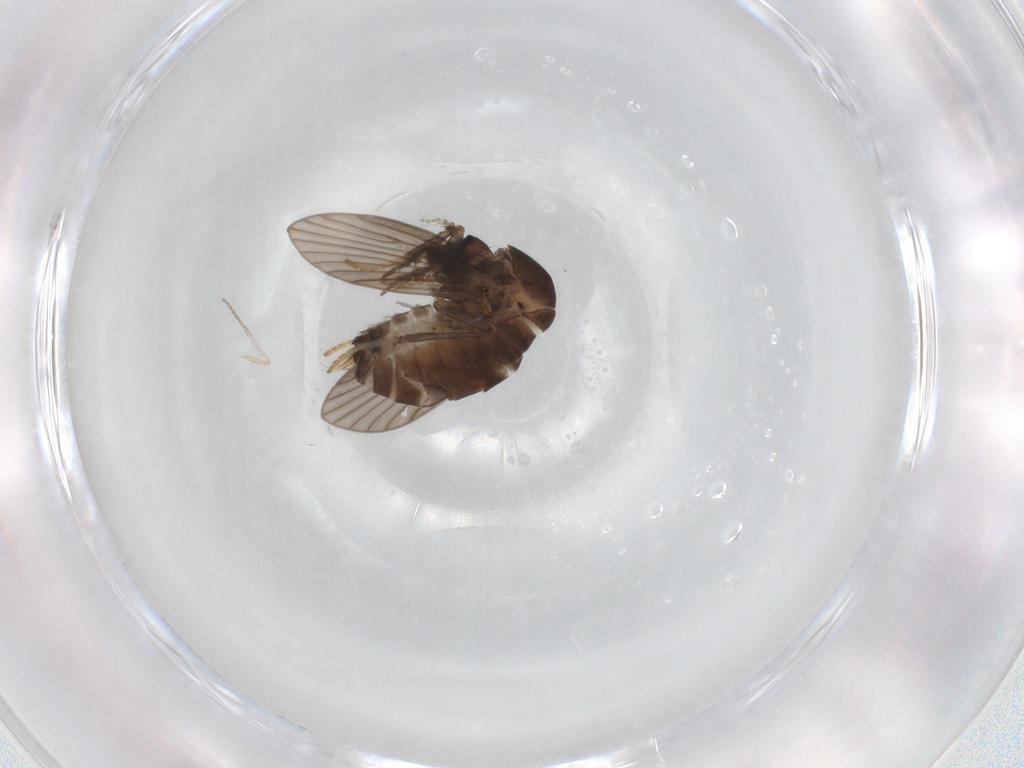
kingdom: Animalia
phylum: Arthropoda
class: Insecta
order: Diptera
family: Psychodidae
